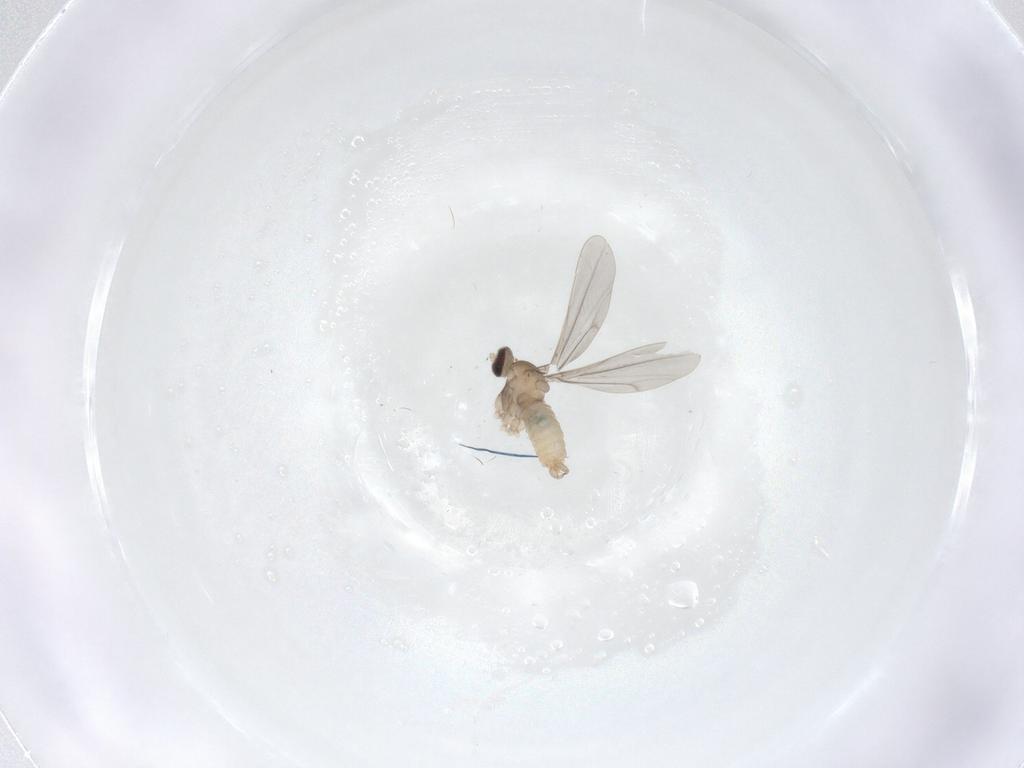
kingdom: Animalia
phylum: Arthropoda
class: Insecta
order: Diptera
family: Cecidomyiidae
